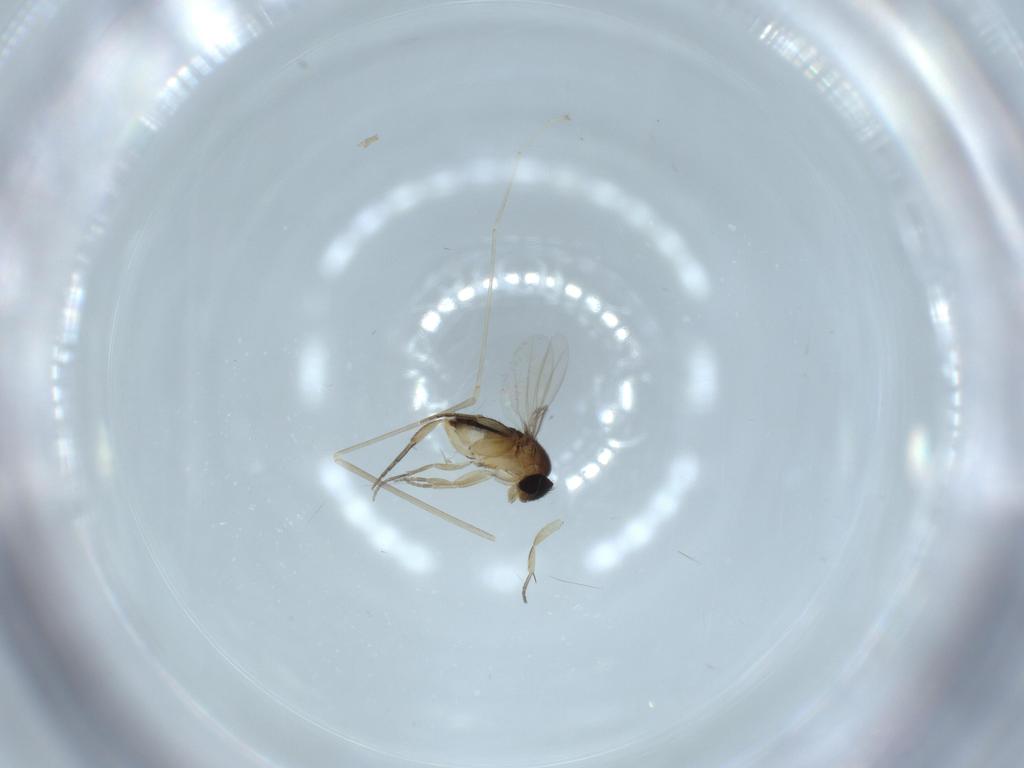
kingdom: Animalia
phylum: Arthropoda
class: Insecta
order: Diptera
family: Phoridae
